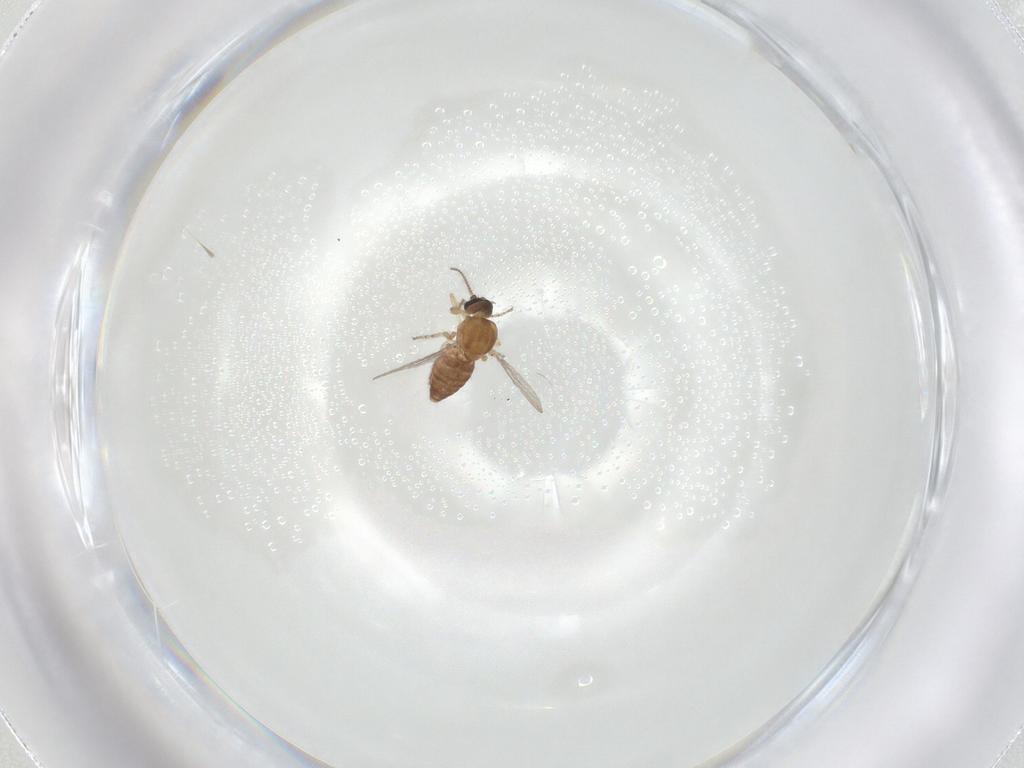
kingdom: Animalia
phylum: Arthropoda
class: Insecta
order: Diptera
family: Ceratopogonidae
